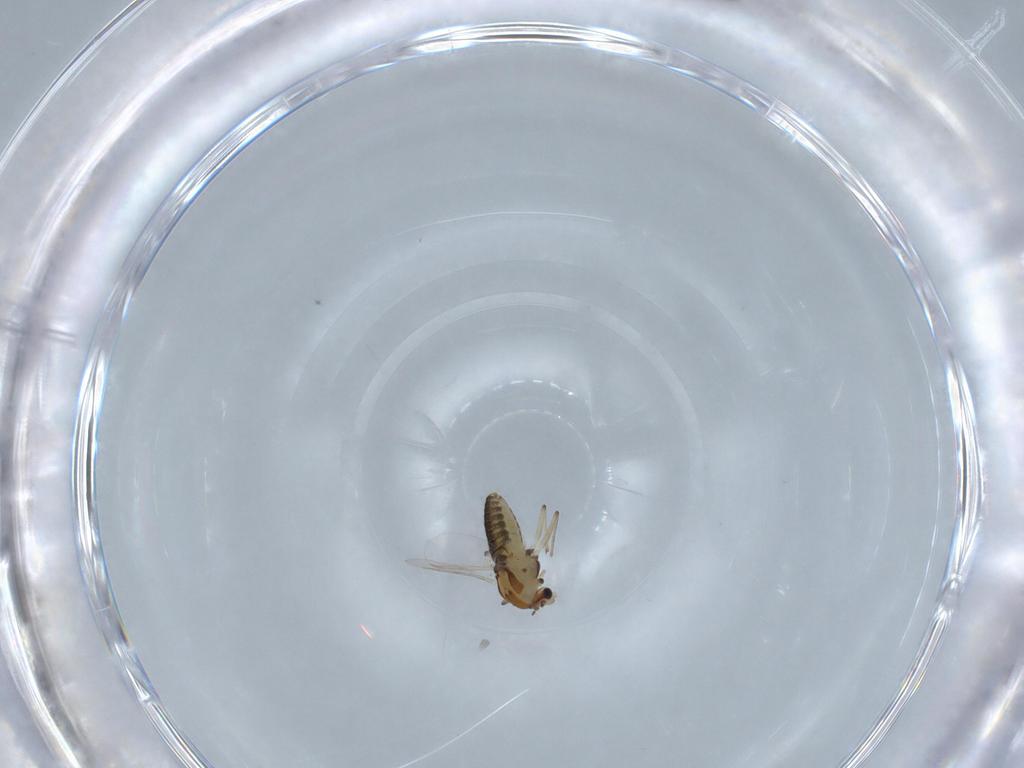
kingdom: Animalia
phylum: Arthropoda
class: Insecta
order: Diptera
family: Chironomidae
